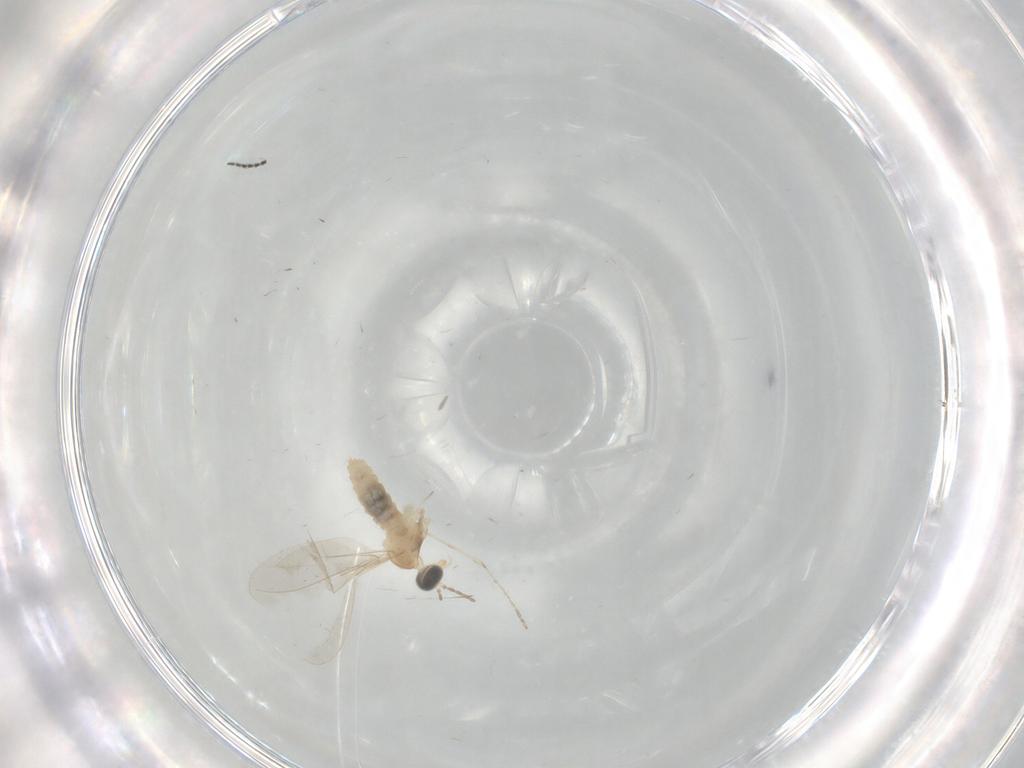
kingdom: Animalia
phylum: Arthropoda
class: Insecta
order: Diptera
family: Cecidomyiidae
